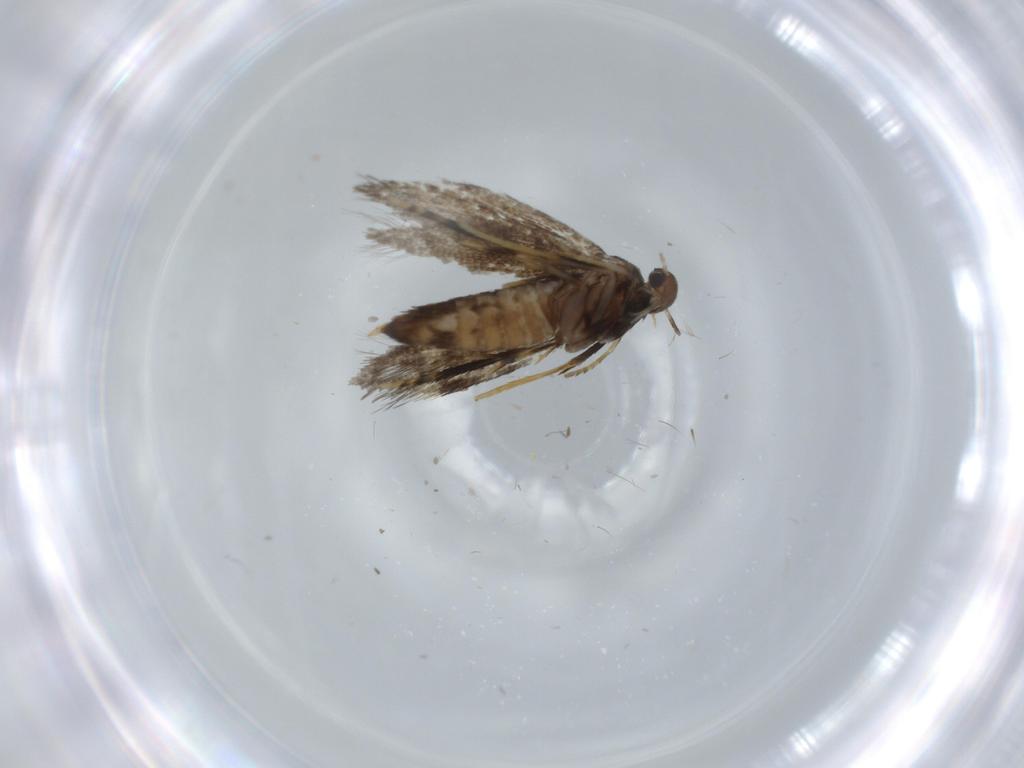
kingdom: Animalia
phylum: Arthropoda
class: Insecta
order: Lepidoptera
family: Heliozelidae
